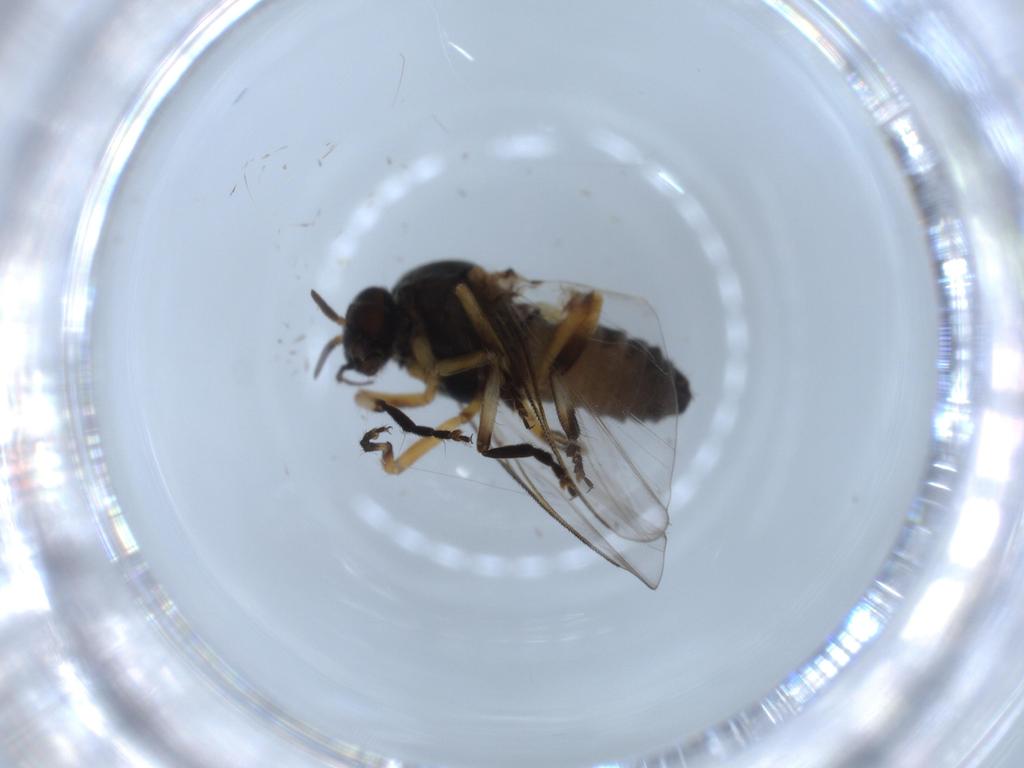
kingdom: Animalia
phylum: Arthropoda
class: Insecta
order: Diptera
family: Sciaridae
